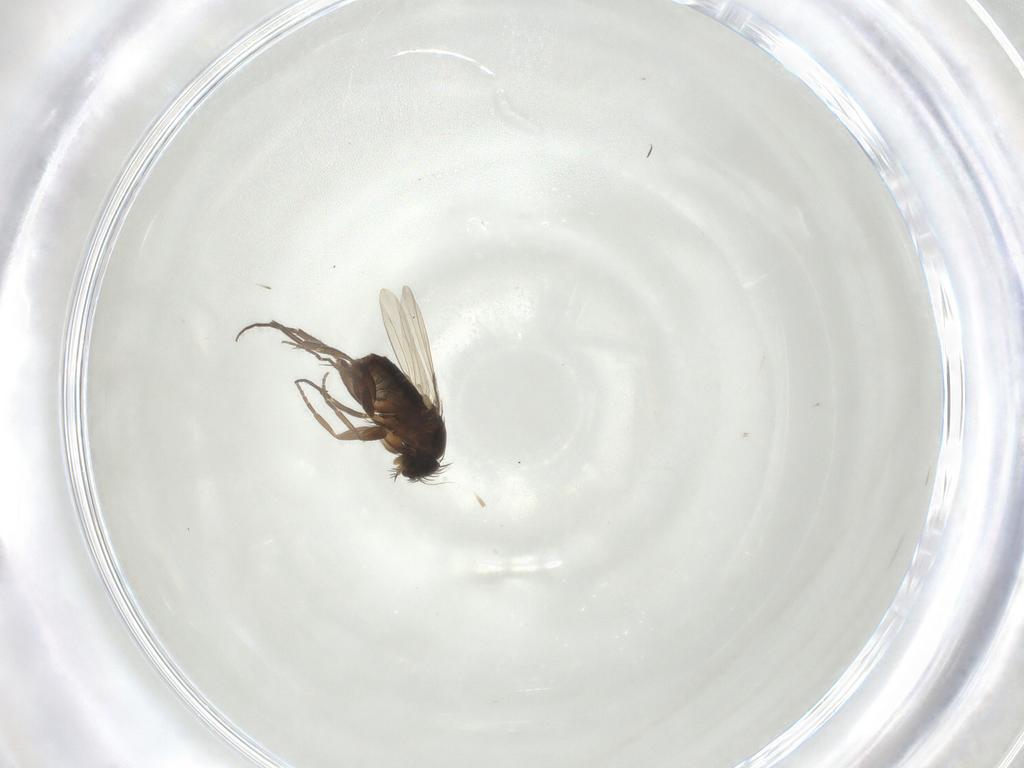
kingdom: Animalia
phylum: Arthropoda
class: Insecta
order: Diptera
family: Phoridae
